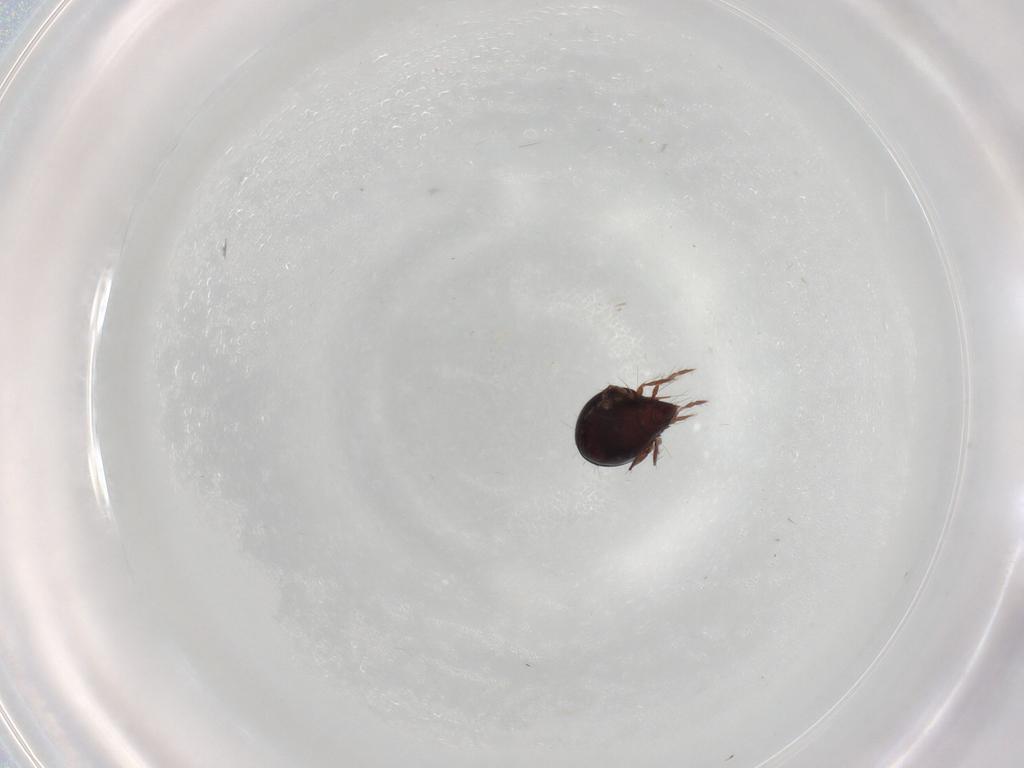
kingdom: Animalia
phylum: Arthropoda
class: Arachnida
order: Sarcoptiformes
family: Ceratoppiidae
